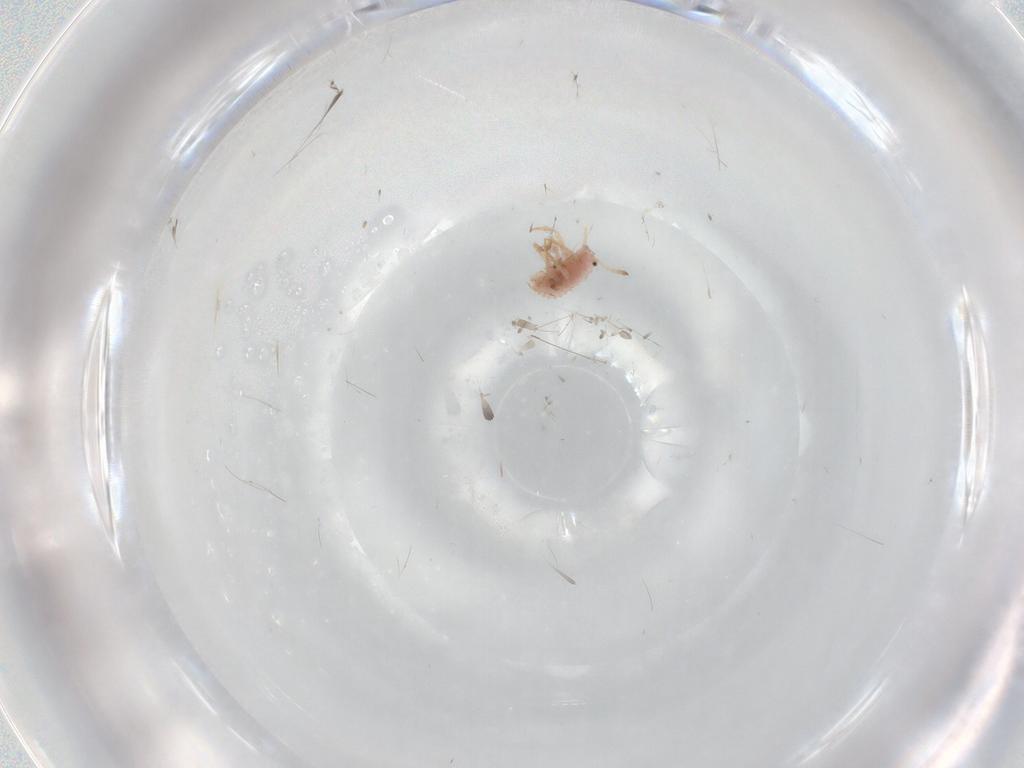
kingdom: Animalia
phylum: Arthropoda
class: Insecta
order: Hemiptera
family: Coccoidea_incertae_sedis
